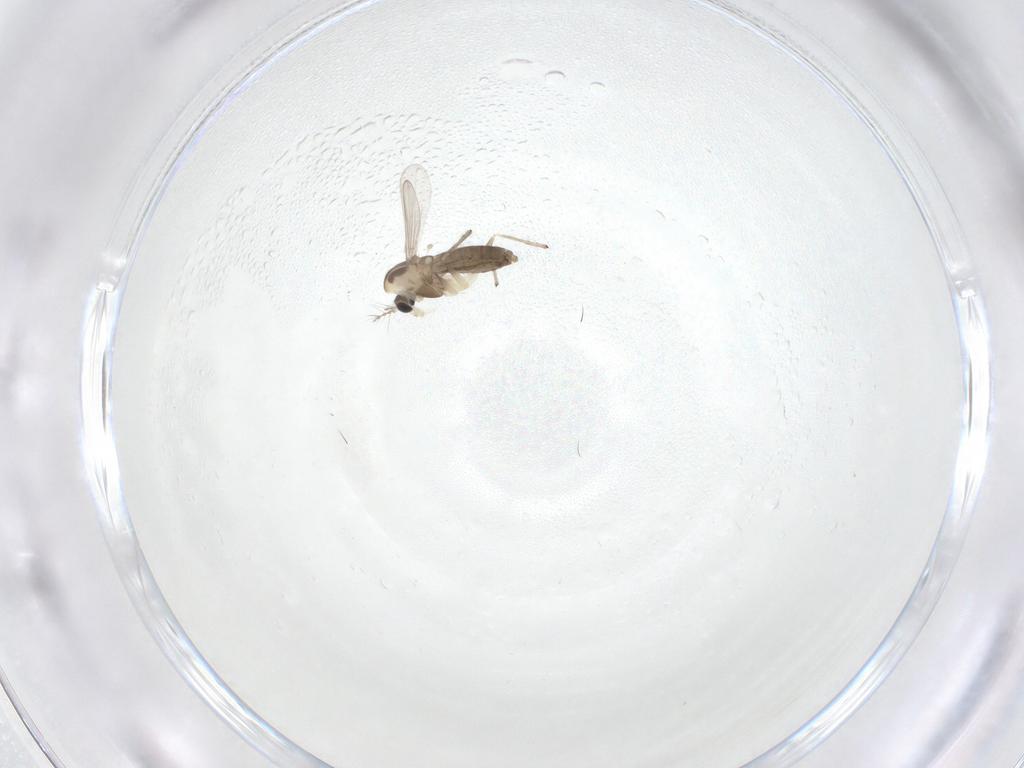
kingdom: Animalia
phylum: Arthropoda
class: Insecta
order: Diptera
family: Chironomidae
